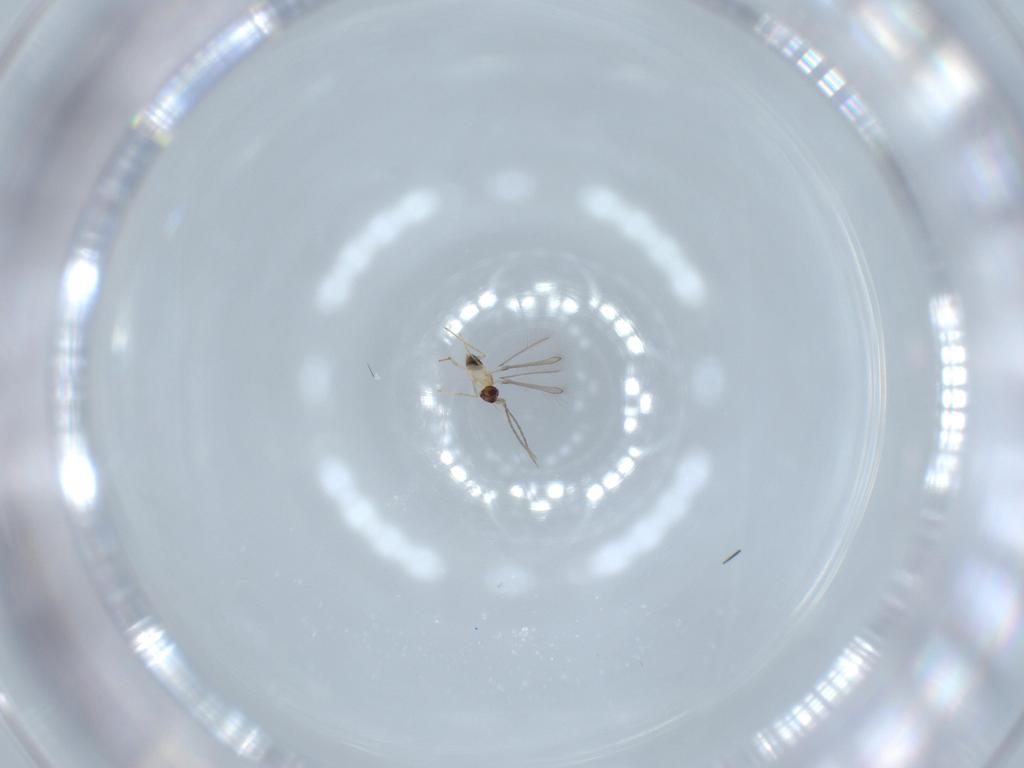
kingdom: Animalia
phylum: Arthropoda
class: Insecta
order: Hymenoptera
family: Mymaridae
